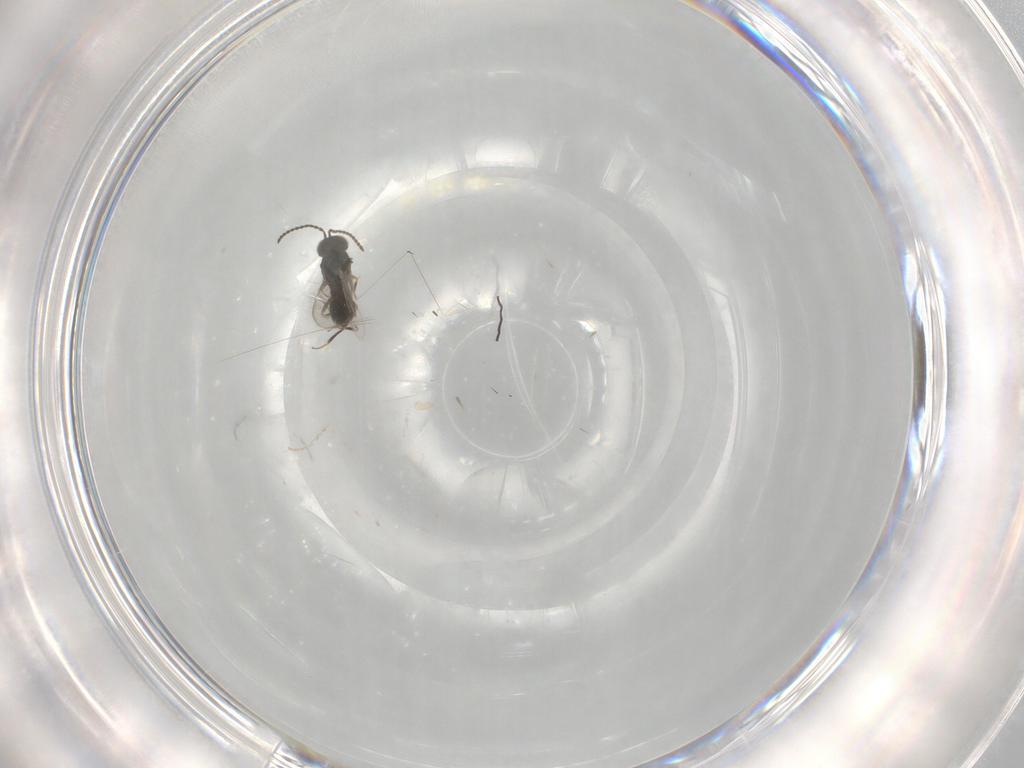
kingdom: Animalia
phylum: Arthropoda
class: Insecta
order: Hymenoptera
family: Scelionidae
